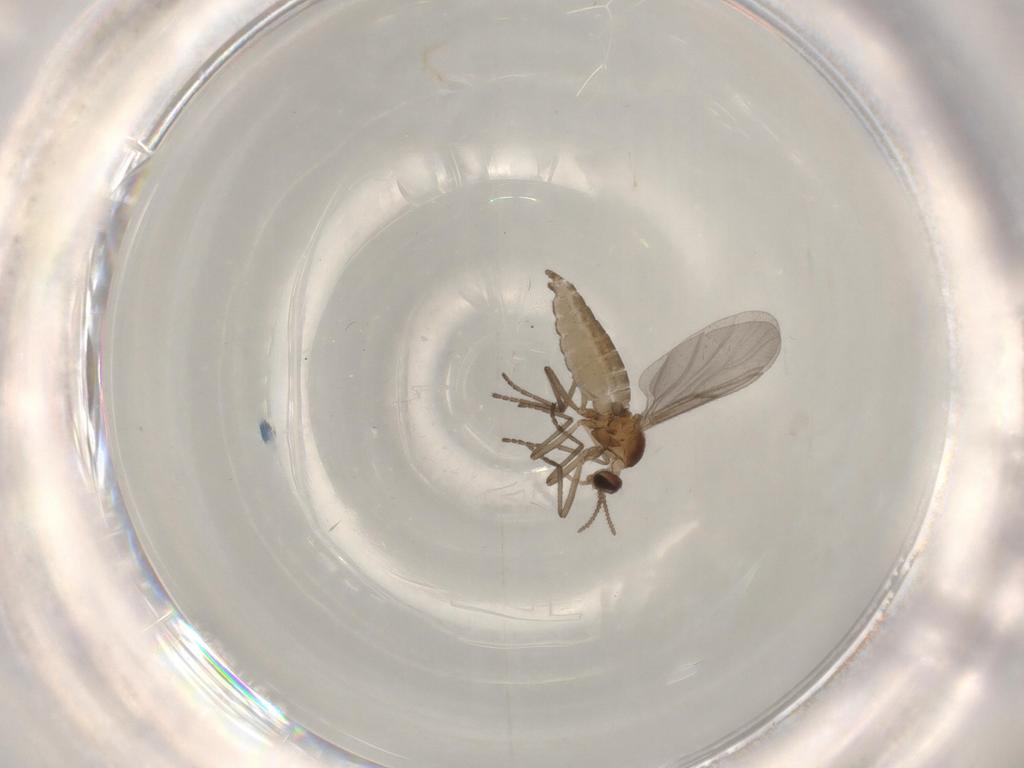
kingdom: Animalia
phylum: Arthropoda
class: Insecta
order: Diptera
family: Cecidomyiidae
